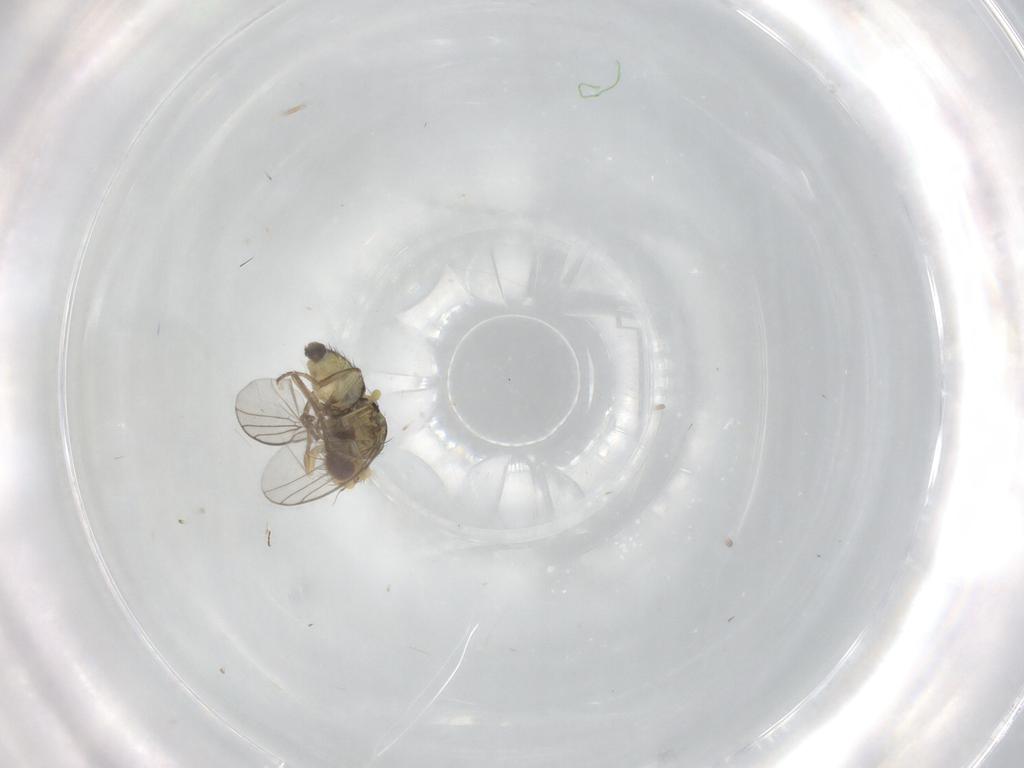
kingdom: Animalia
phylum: Arthropoda
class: Insecta
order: Diptera
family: Agromyzidae
